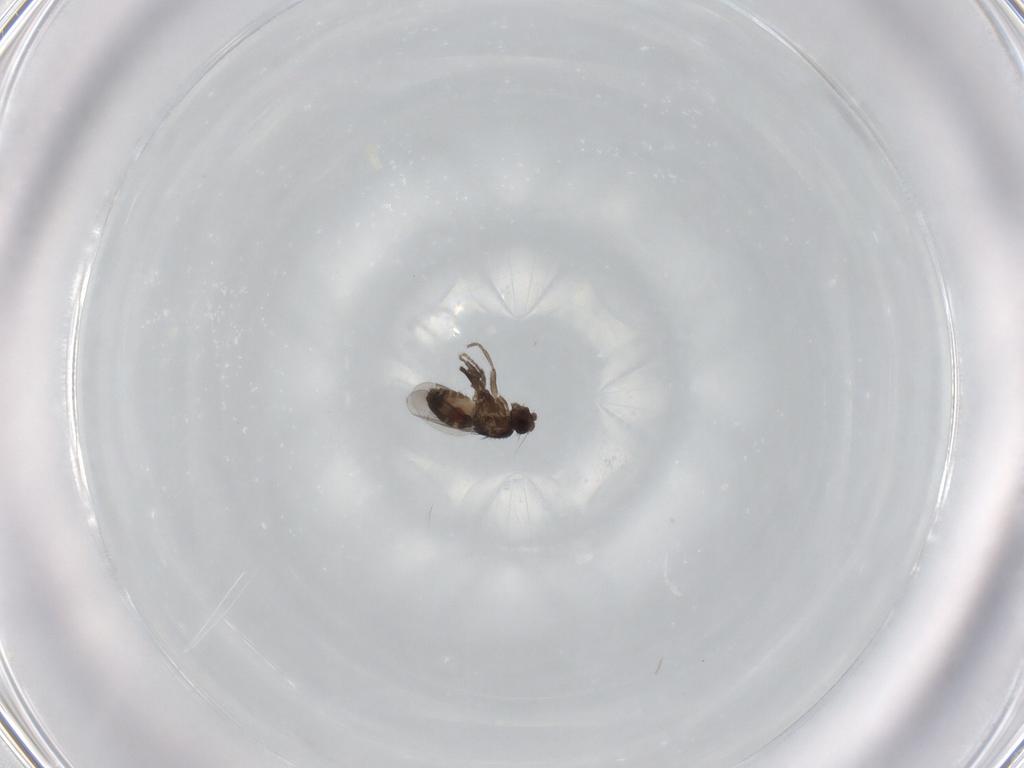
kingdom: Animalia
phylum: Arthropoda
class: Insecta
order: Diptera
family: Sphaeroceridae
